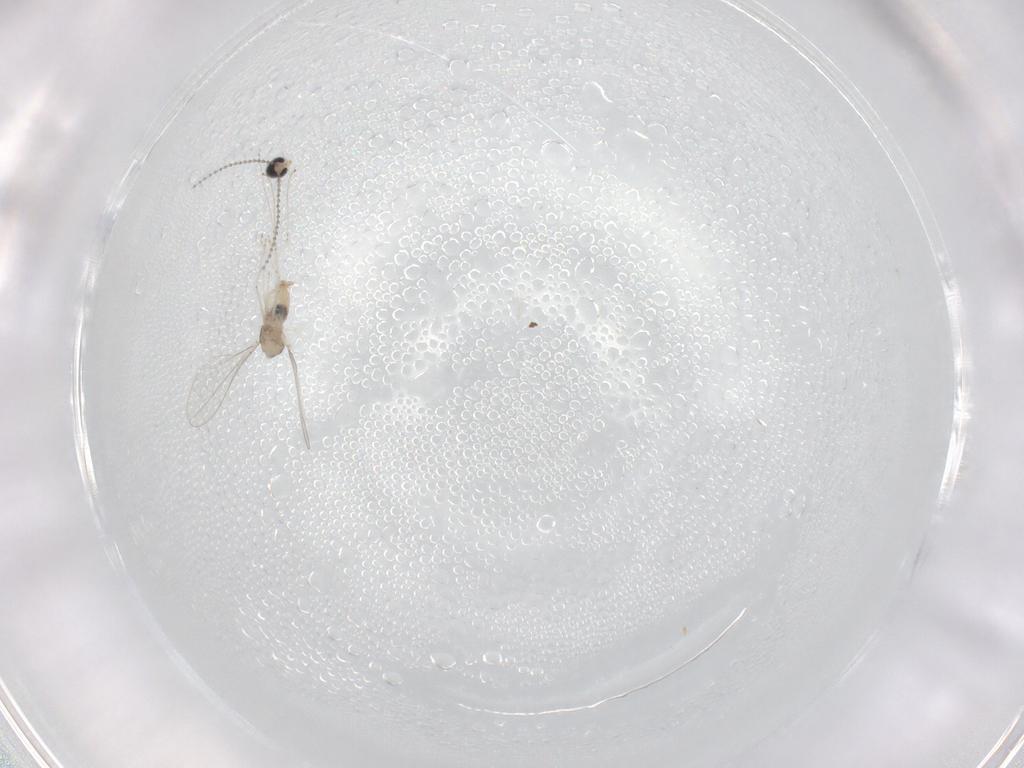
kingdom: Animalia
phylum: Arthropoda
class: Insecta
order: Diptera
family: Cecidomyiidae
